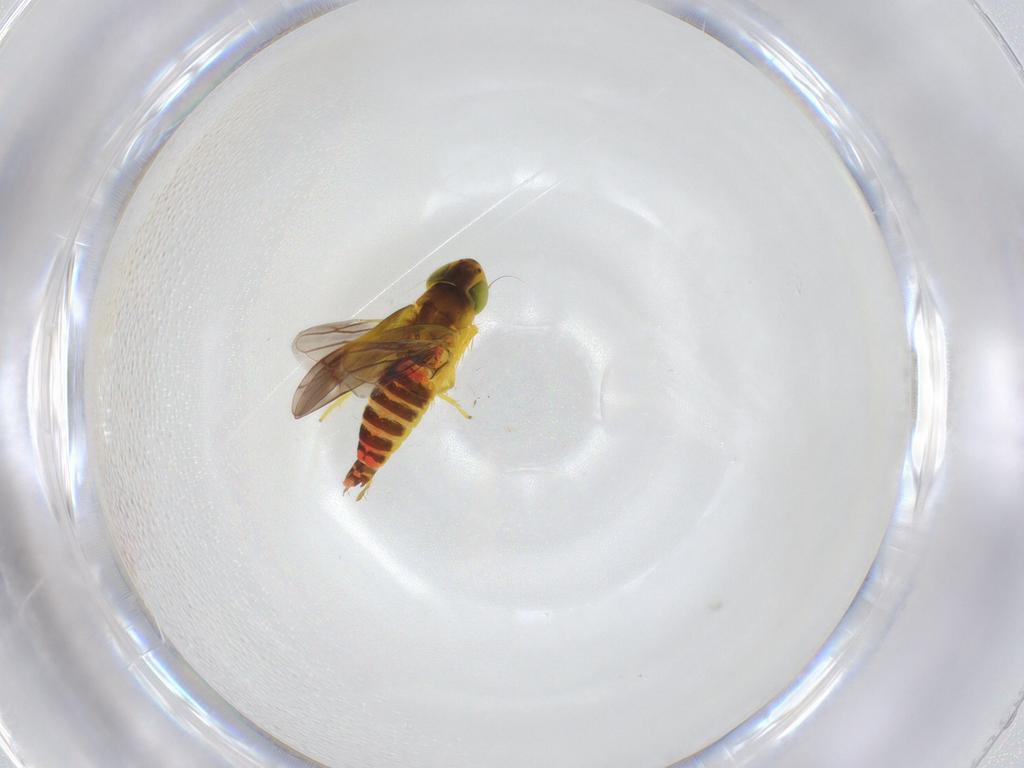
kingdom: Animalia
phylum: Arthropoda
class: Insecta
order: Hemiptera
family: Cicadellidae
